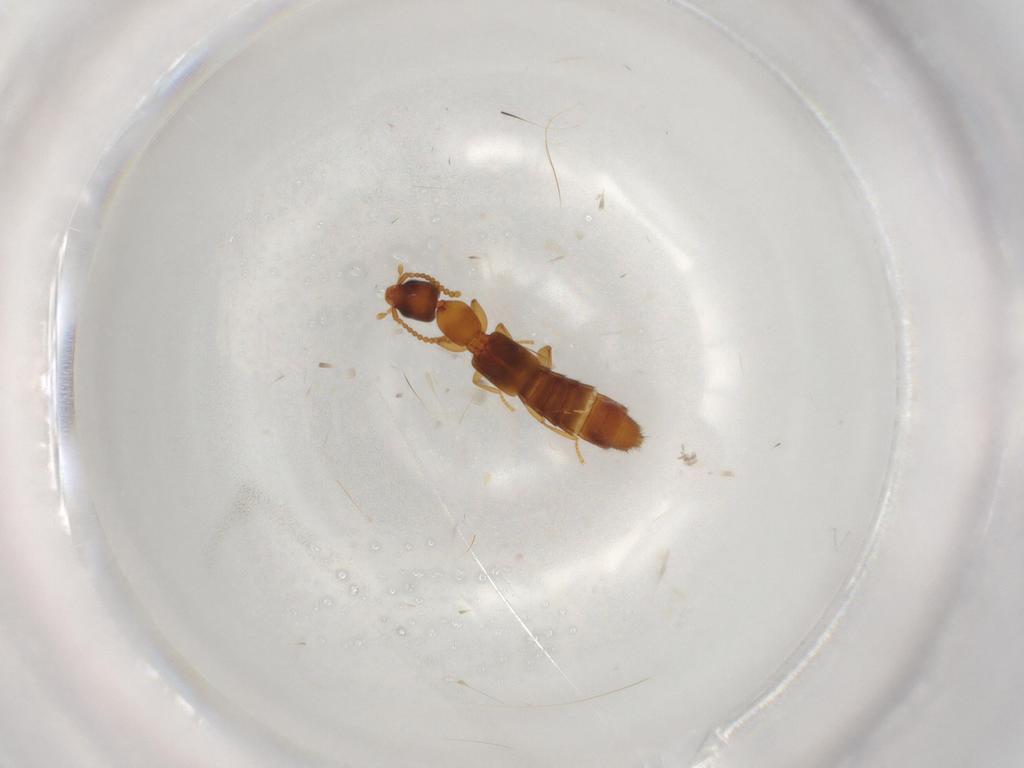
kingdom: Animalia
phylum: Arthropoda
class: Insecta
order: Coleoptera
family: Staphylinidae
